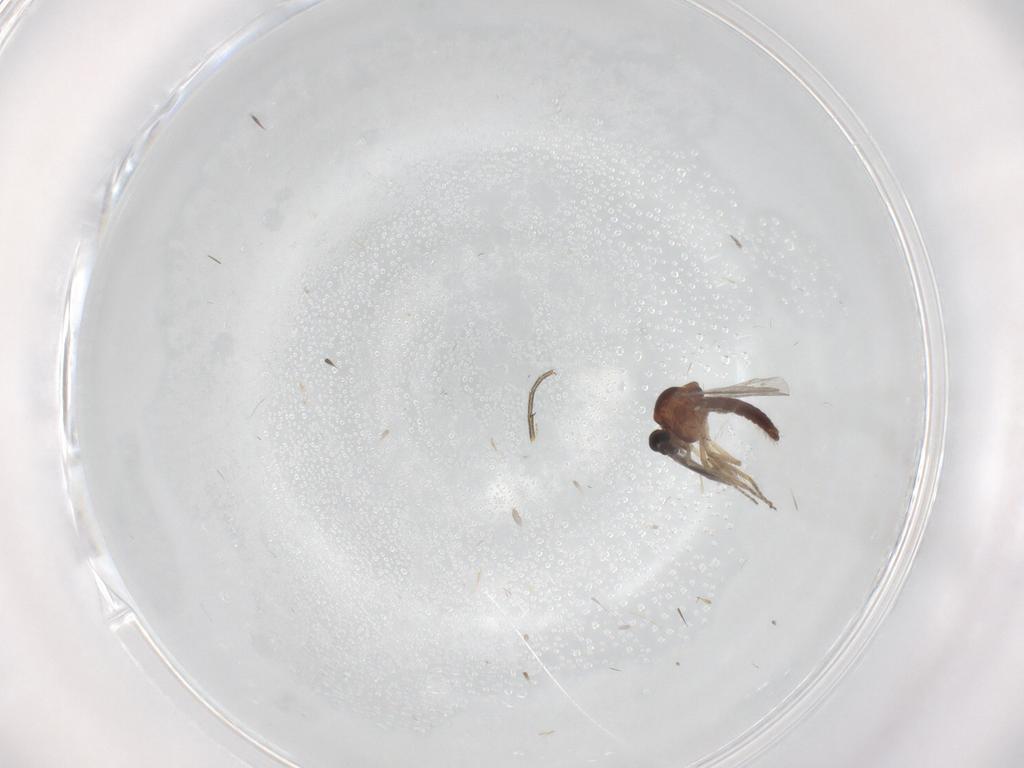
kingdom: Animalia
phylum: Arthropoda
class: Insecta
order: Diptera
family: Ceratopogonidae
